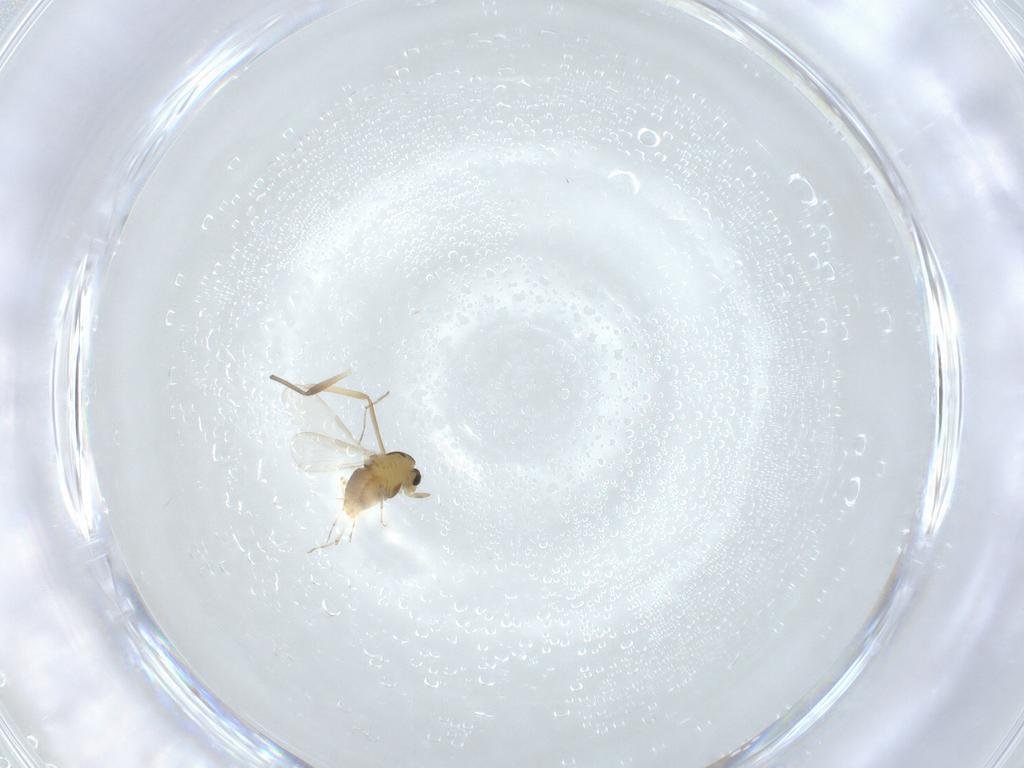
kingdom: Animalia
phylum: Arthropoda
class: Insecta
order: Diptera
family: Chironomidae
